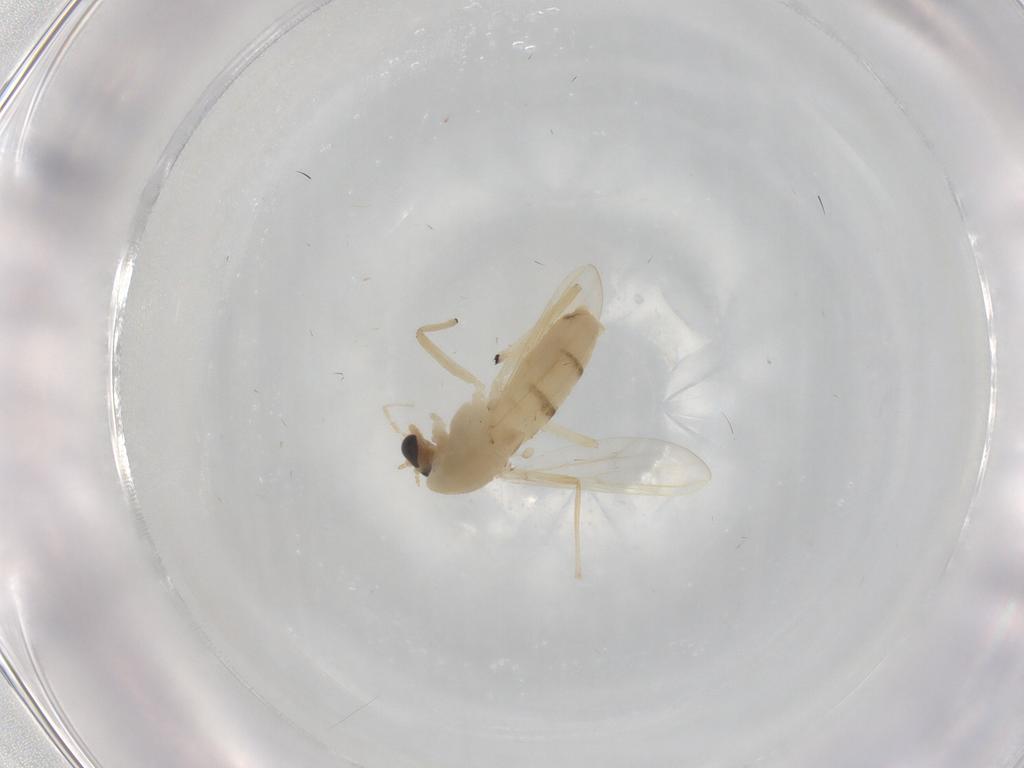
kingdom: Animalia
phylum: Arthropoda
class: Insecta
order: Diptera
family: Chironomidae
